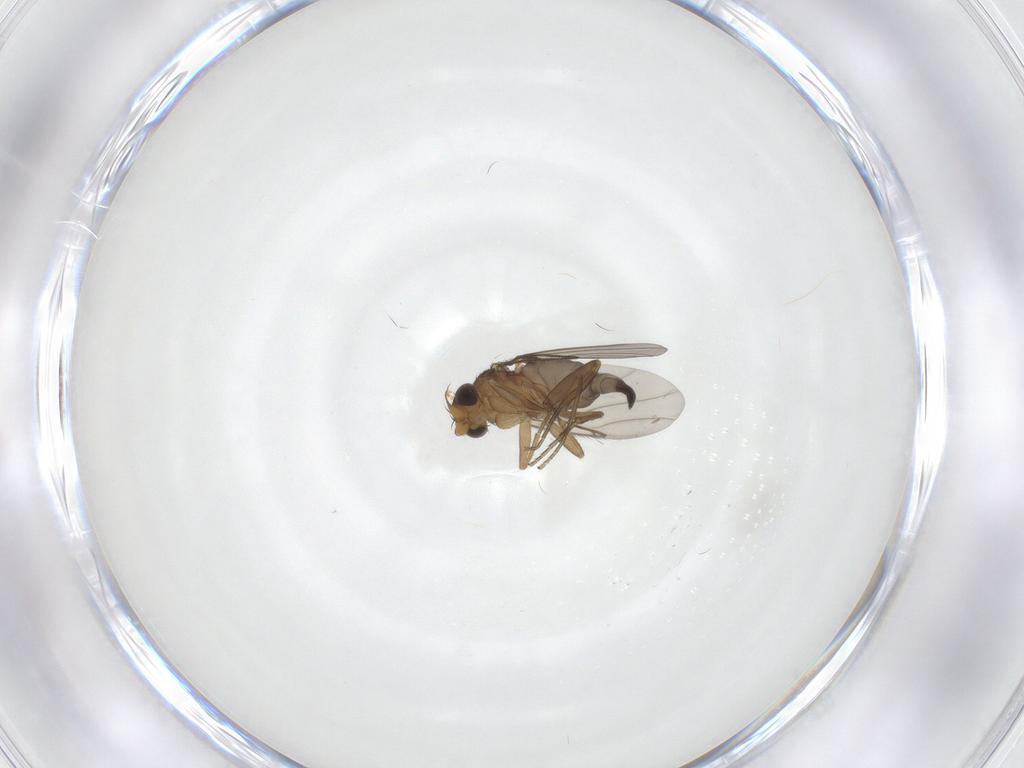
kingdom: Animalia
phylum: Arthropoda
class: Insecta
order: Diptera
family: Phoridae
